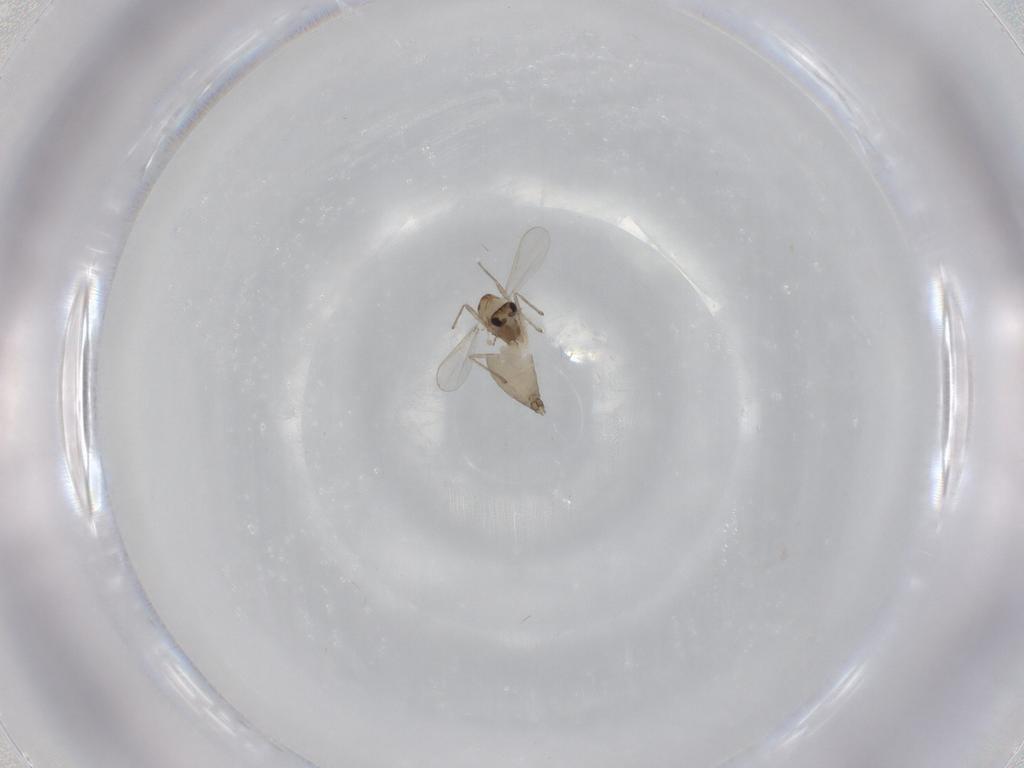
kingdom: Animalia
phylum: Arthropoda
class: Insecta
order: Diptera
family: Chironomidae
